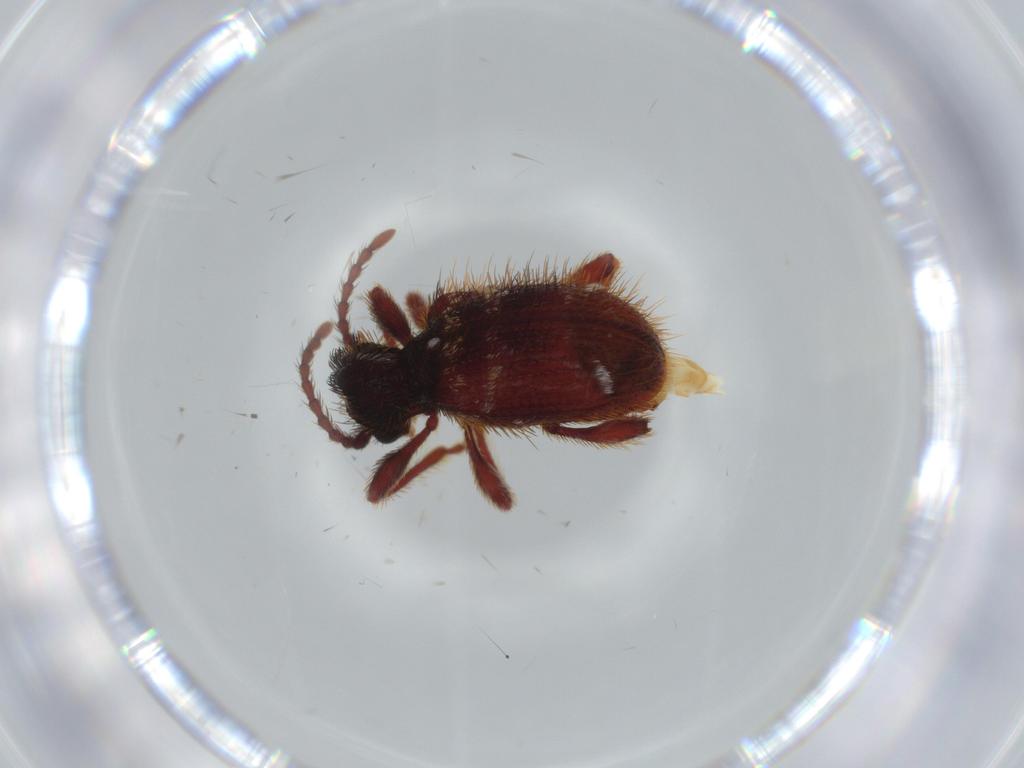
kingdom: Animalia
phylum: Arthropoda
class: Insecta
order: Coleoptera
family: Ptinidae
